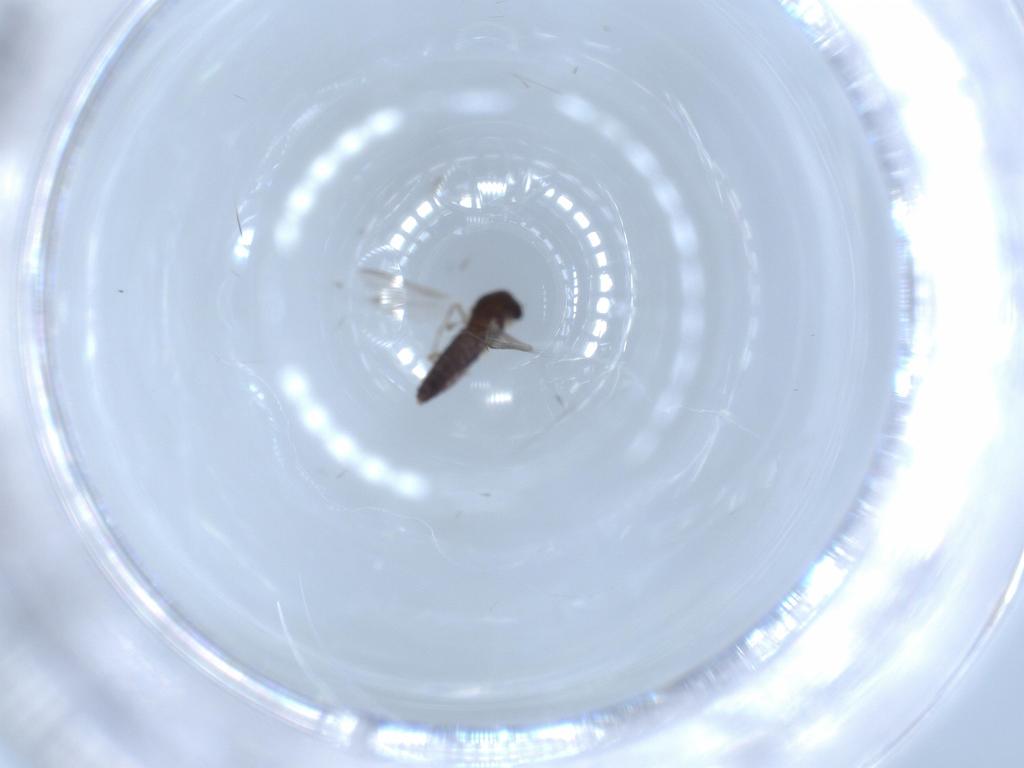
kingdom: Animalia
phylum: Arthropoda
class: Insecta
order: Diptera
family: Chironomidae
